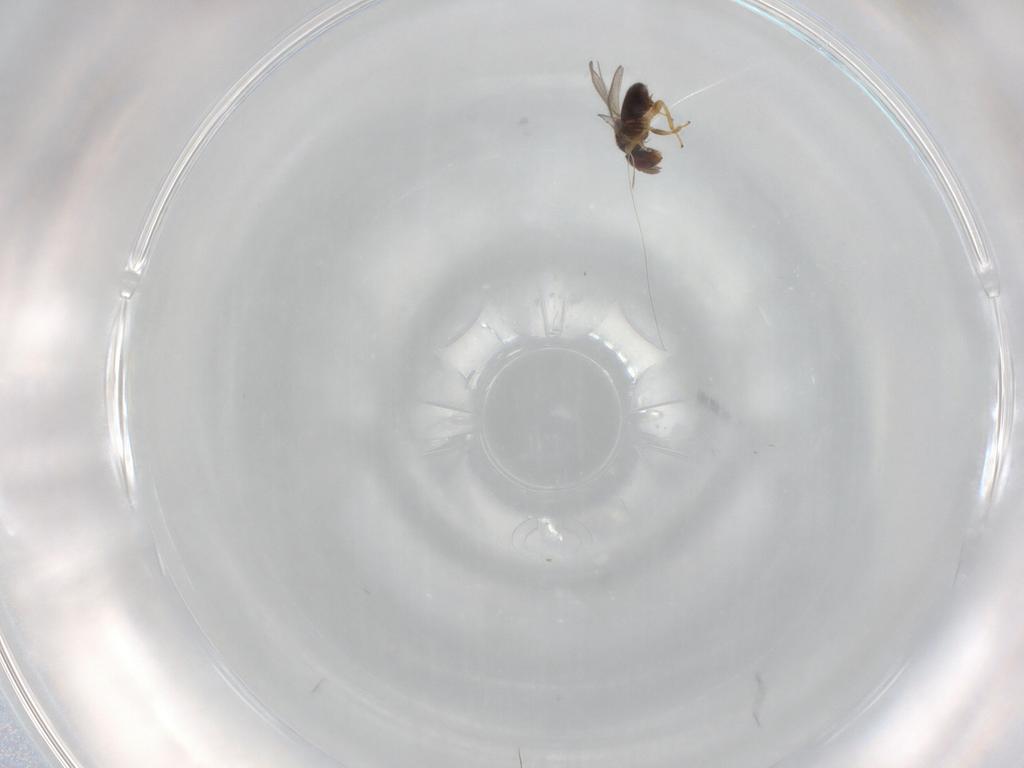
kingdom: Animalia
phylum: Arthropoda
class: Insecta
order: Hymenoptera
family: Eulophidae
